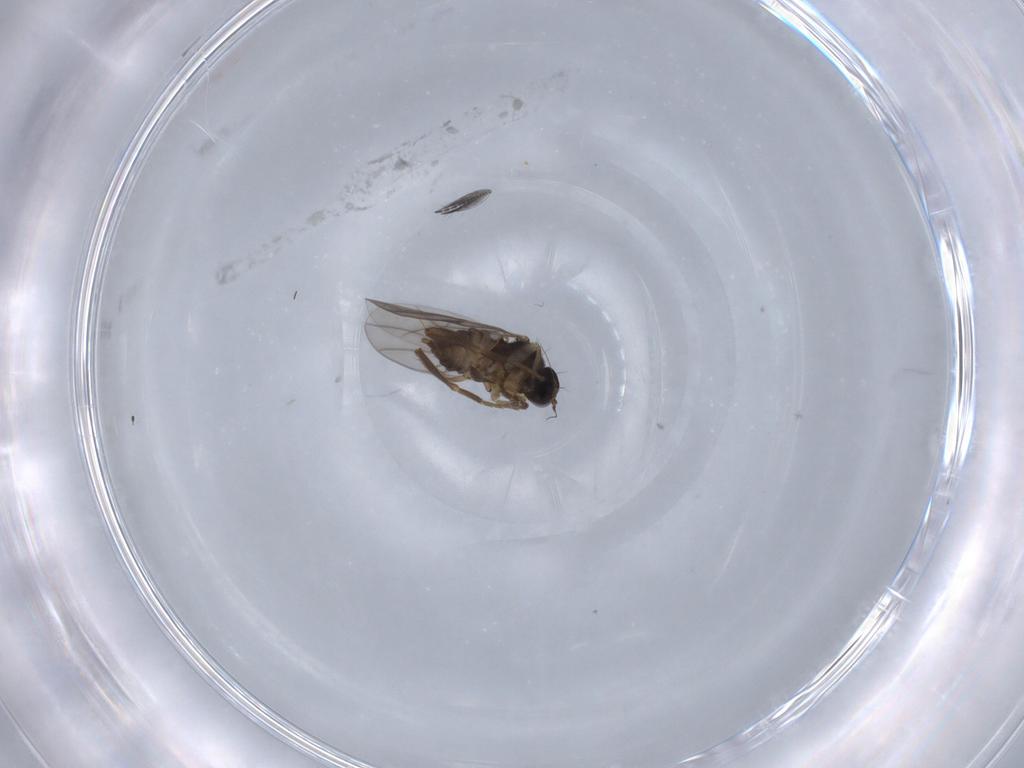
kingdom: Animalia
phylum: Arthropoda
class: Insecta
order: Diptera
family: Hybotidae
